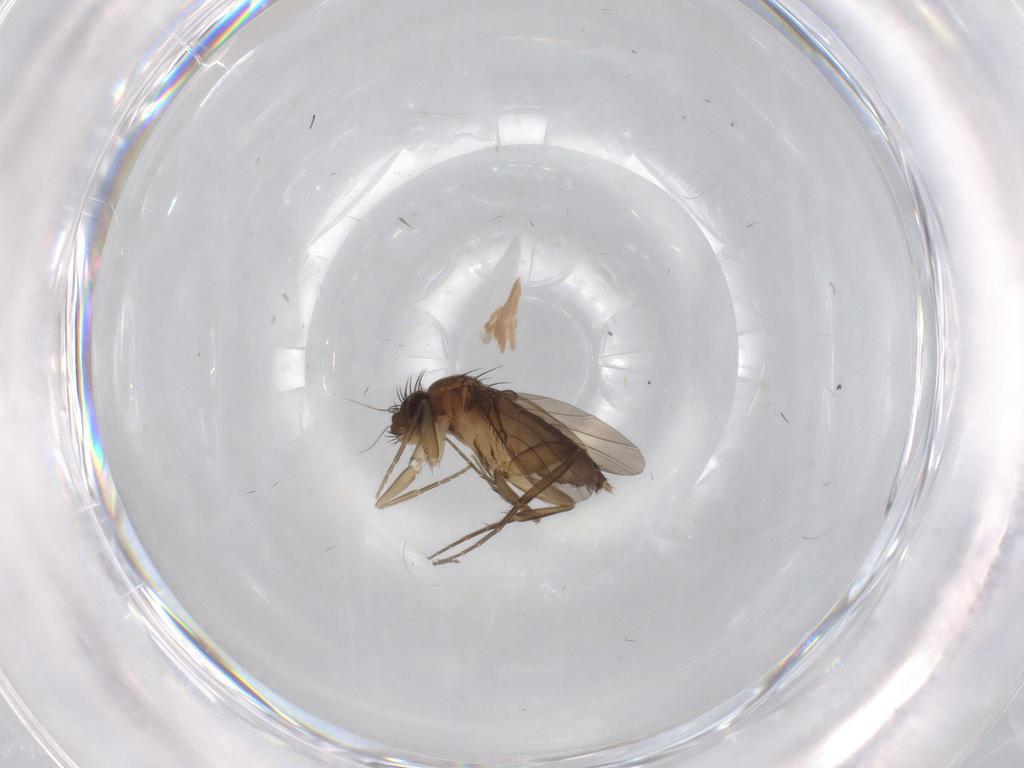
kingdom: Animalia
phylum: Arthropoda
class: Insecta
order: Diptera
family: Phoridae
